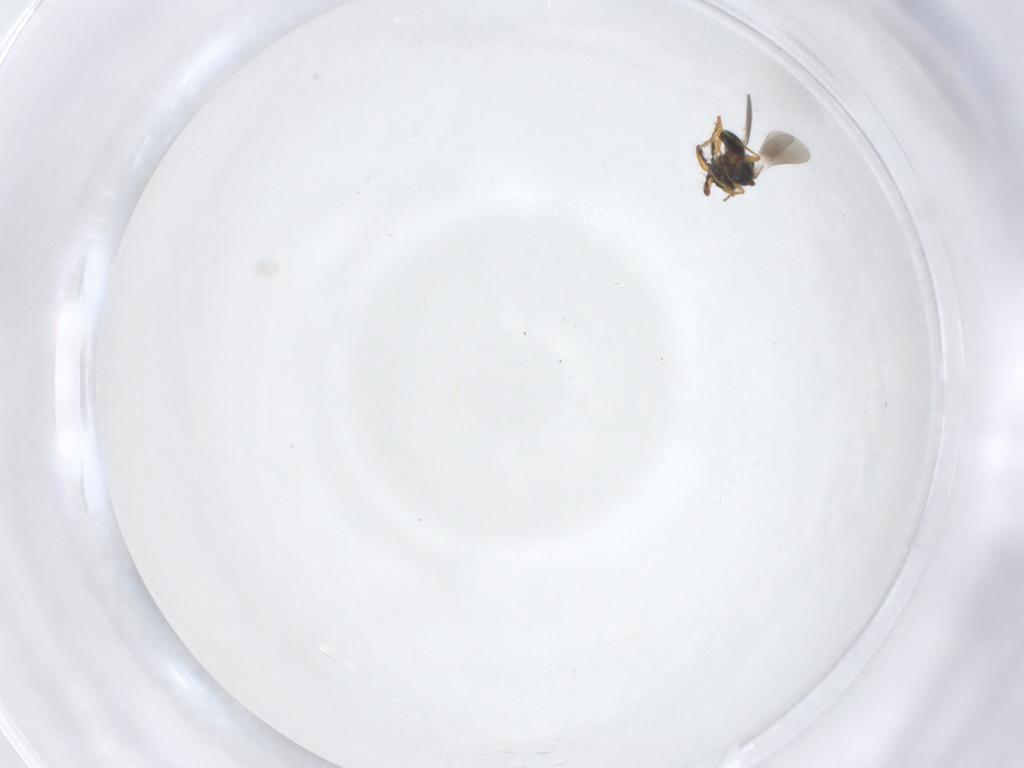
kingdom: Animalia
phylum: Arthropoda
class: Insecta
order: Hymenoptera
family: Platygastridae
